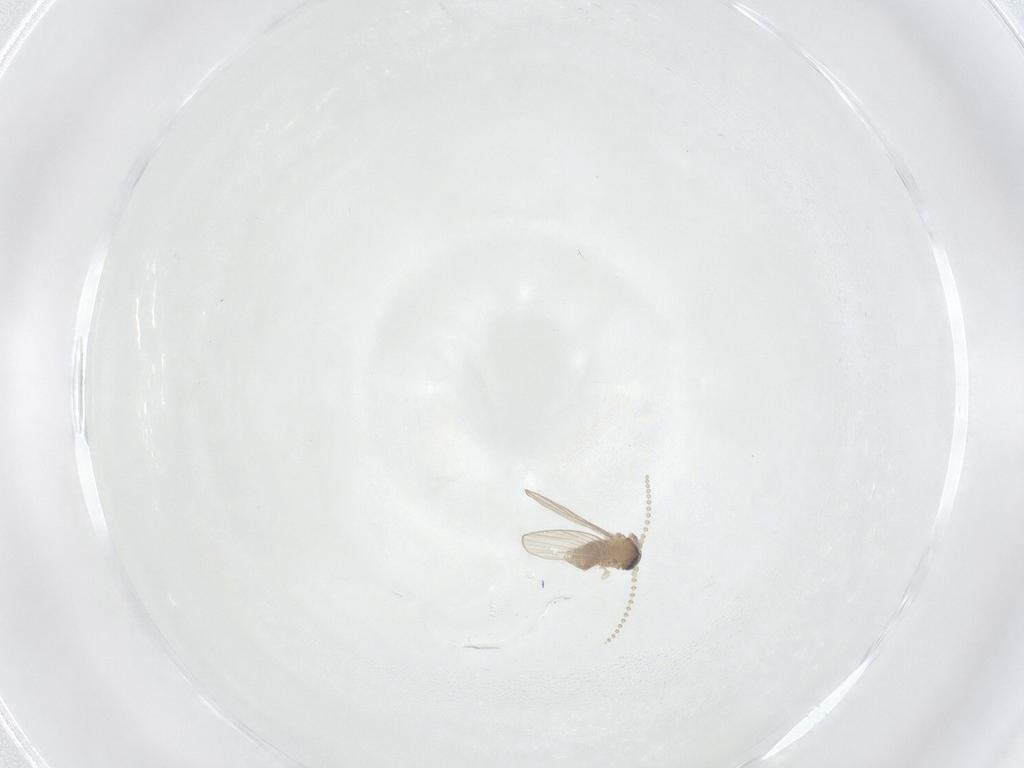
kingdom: Animalia
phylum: Arthropoda
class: Insecta
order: Diptera
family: Psychodidae
